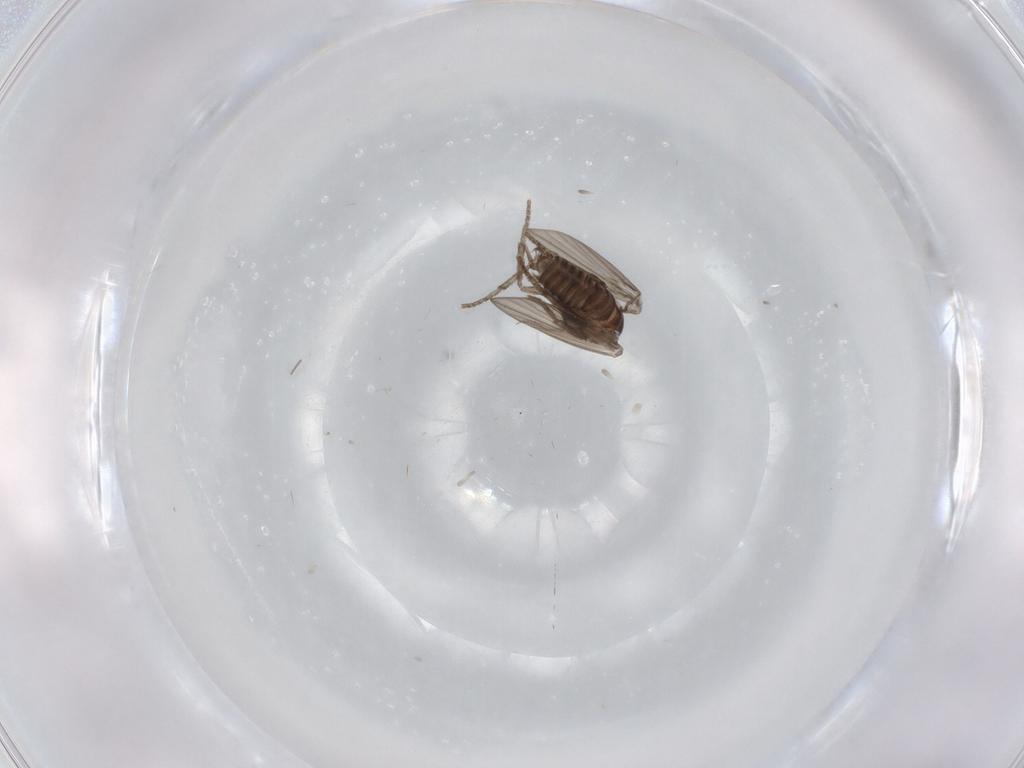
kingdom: Animalia
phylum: Arthropoda
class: Insecta
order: Diptera
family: Chironomidae
